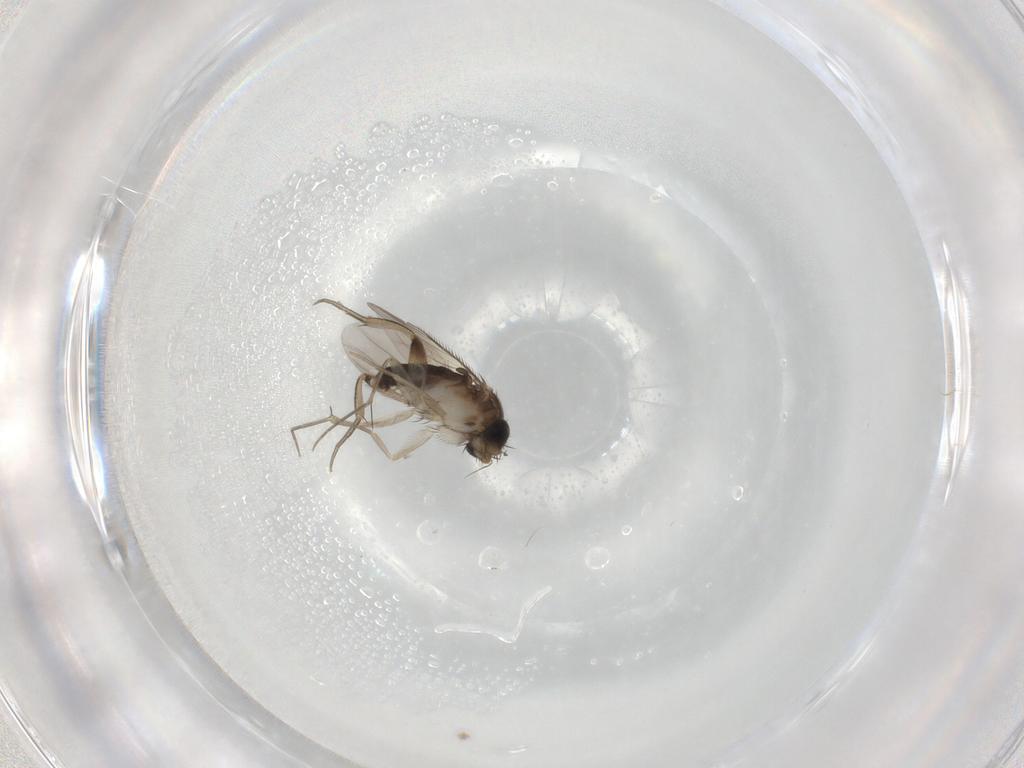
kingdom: Animalia
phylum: Arthropoda
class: Insecta
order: Diptera
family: Phoridae
